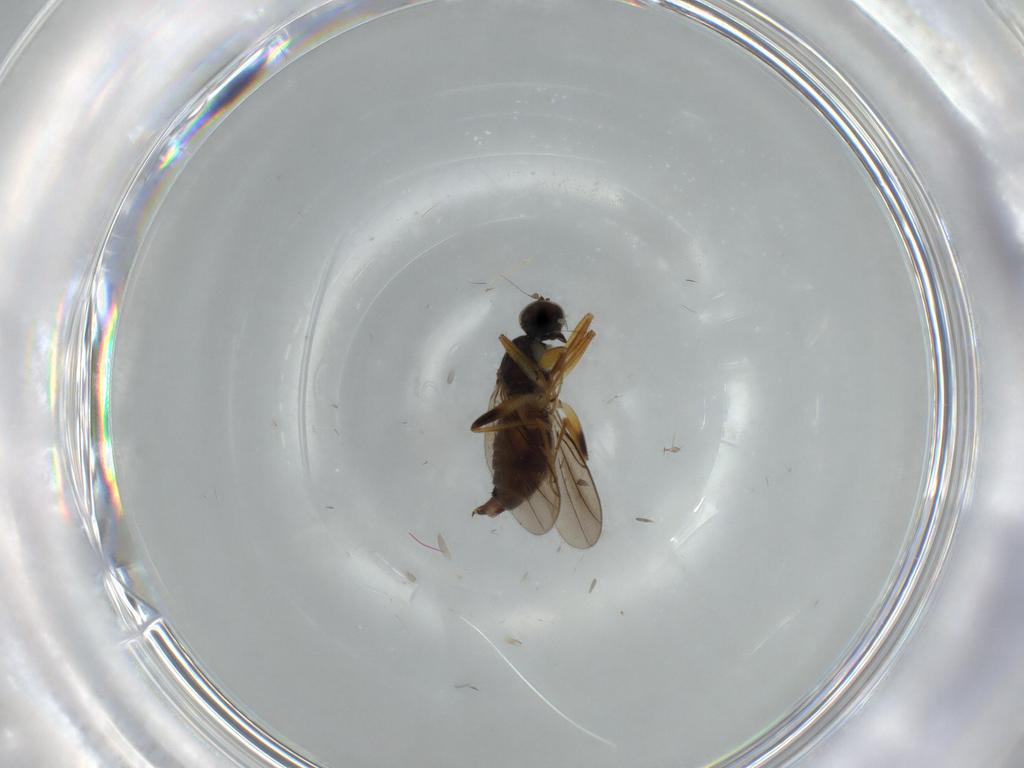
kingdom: Animalia
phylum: Arthropoda
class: Insecta
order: Diptera
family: Hybotidae
